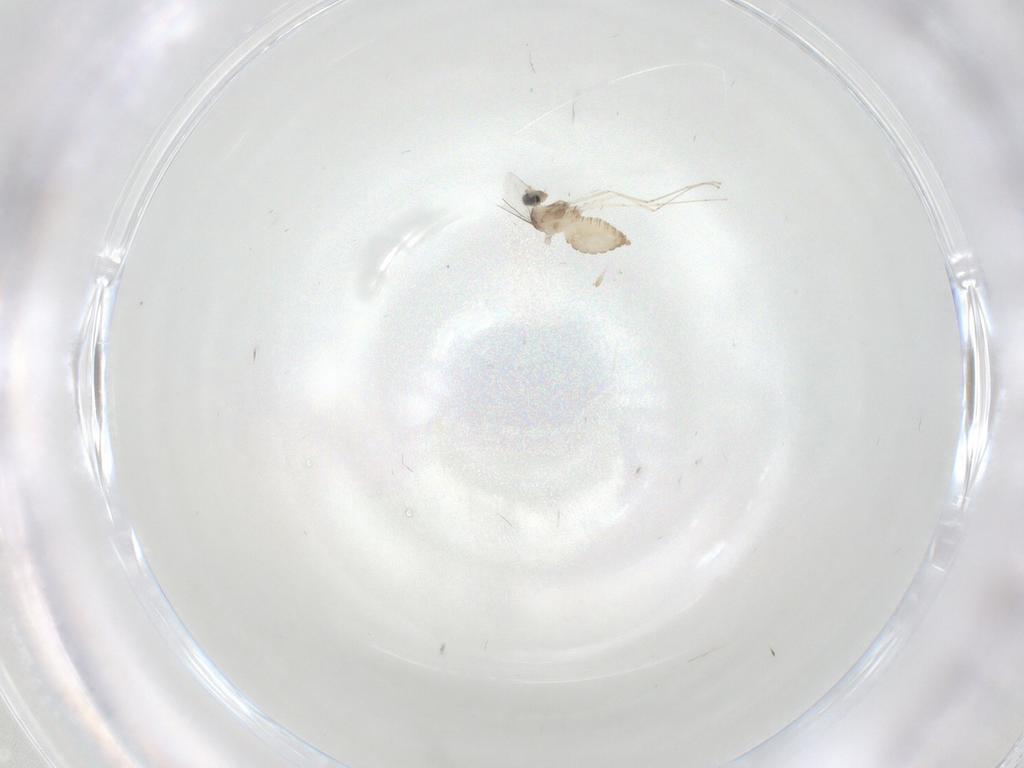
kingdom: Animalia
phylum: Arthropoda
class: Insecta
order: Diptera
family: Cecidomyiidae
